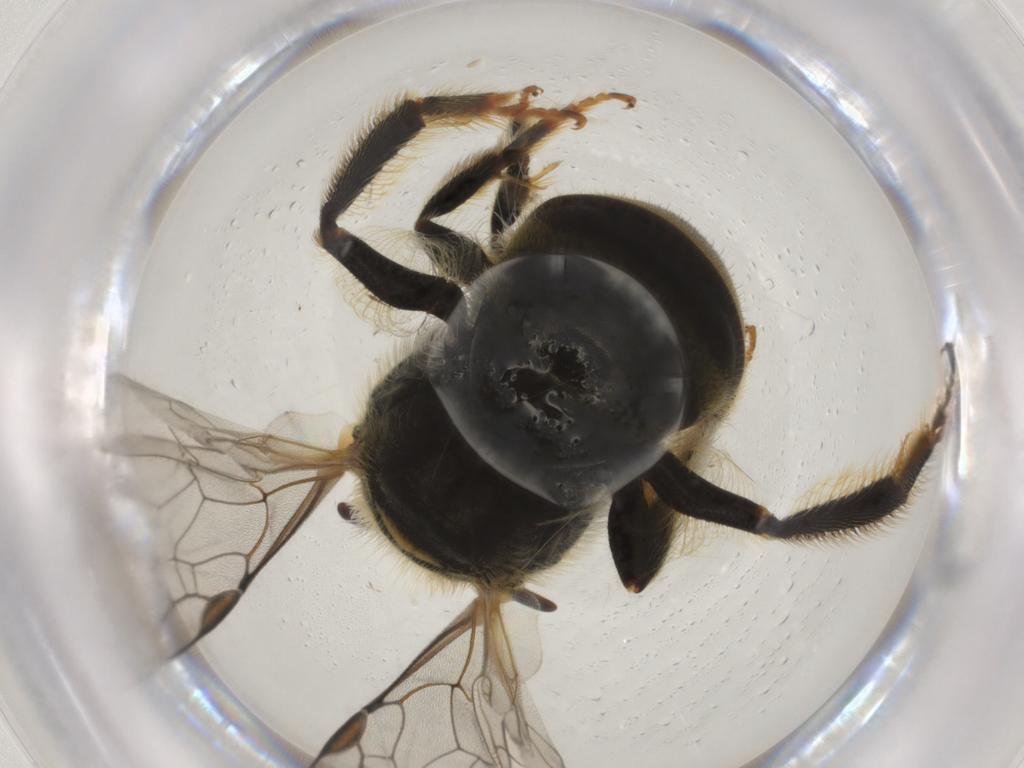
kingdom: Animalia
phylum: Arthropoda
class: Insecta
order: Hymenoptera
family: Halictidae
